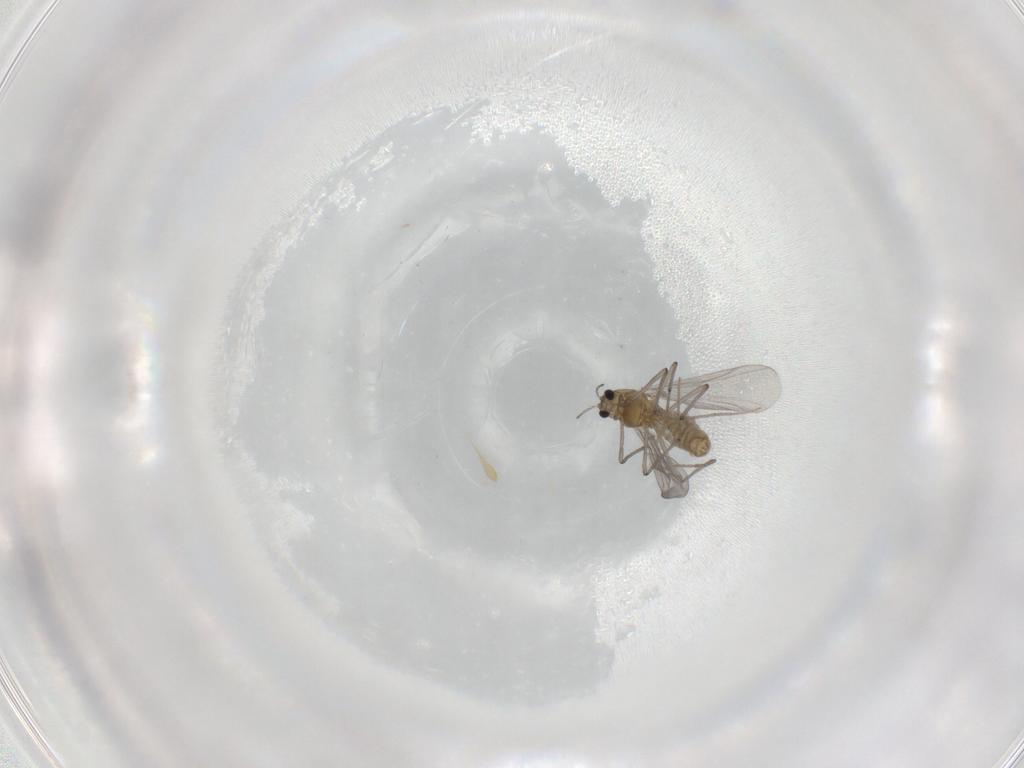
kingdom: Animalia
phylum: Arthropoda
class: Insecta
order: Diptera
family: Chironomidae
